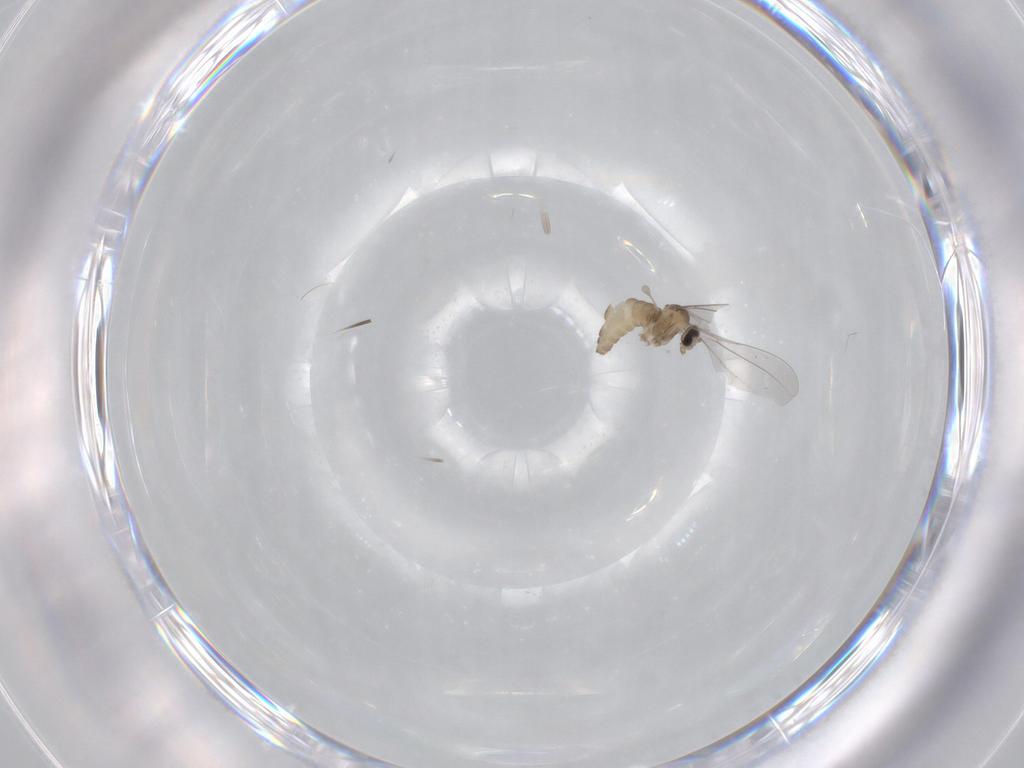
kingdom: Animalia
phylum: Arthropoda
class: Insecta
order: Diptera
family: Cecidomyiidae
